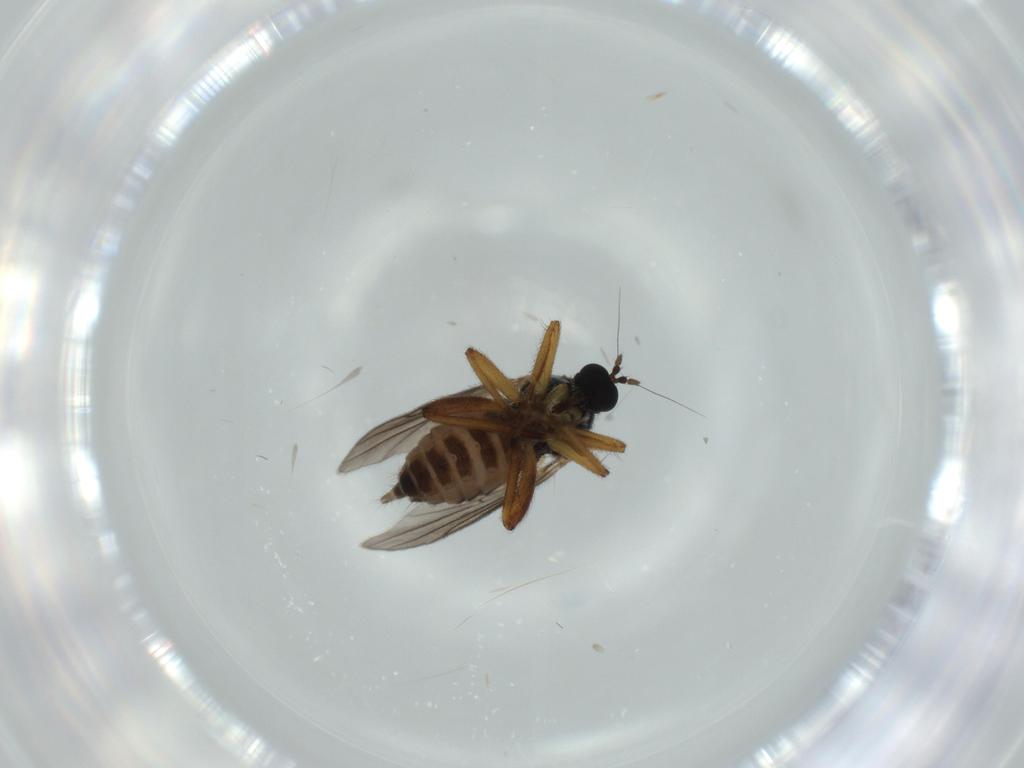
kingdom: Animalia
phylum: Arthropoda
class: Insecta
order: Diptera
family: Hybotidae
